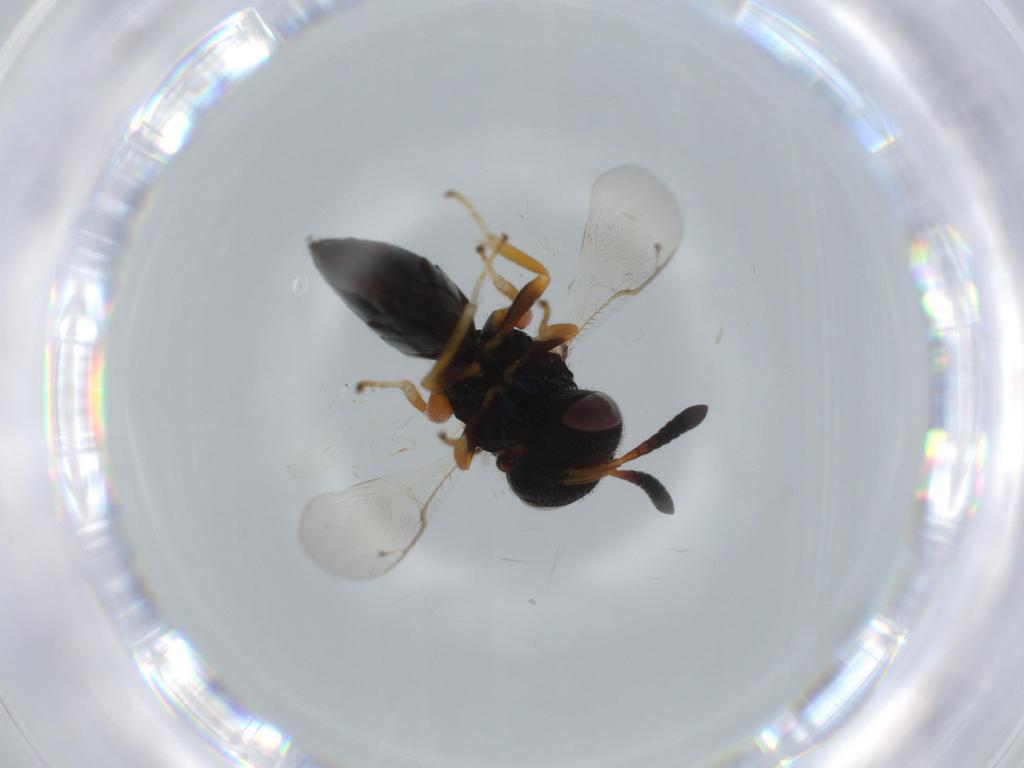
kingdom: Animalia
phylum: Arthropoda
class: Insecta
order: Hymenoptera
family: Agaonidae
